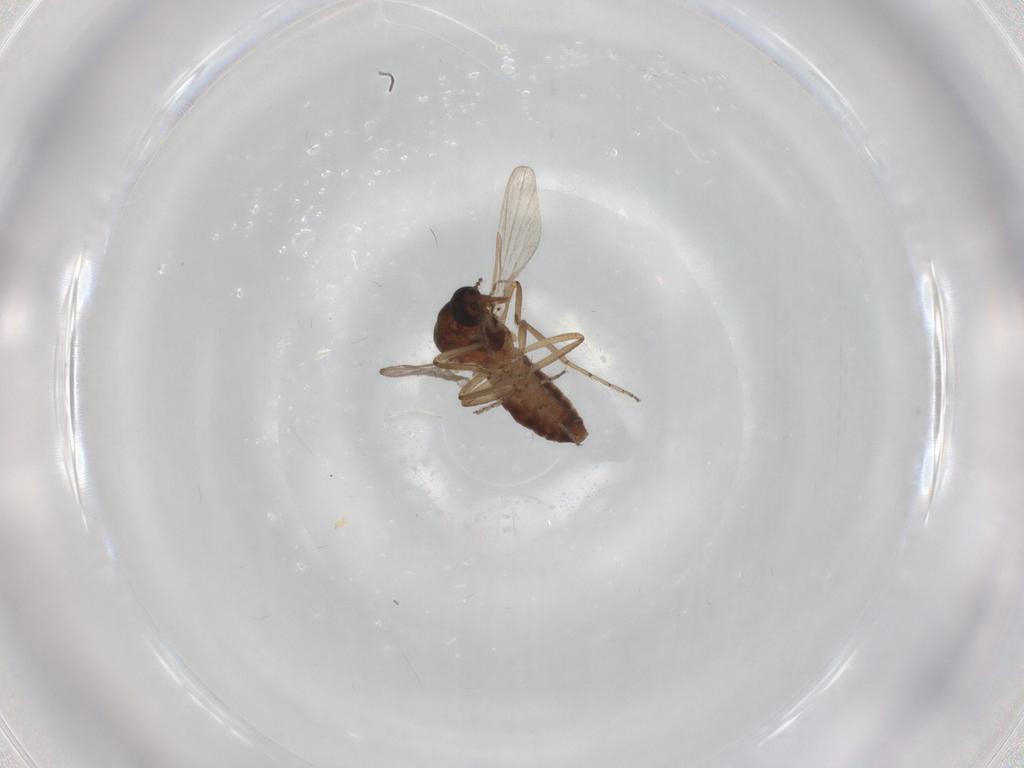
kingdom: Animalia
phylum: Arthropoda
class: Insecta
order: Diptera
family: Ceratopogonidae
